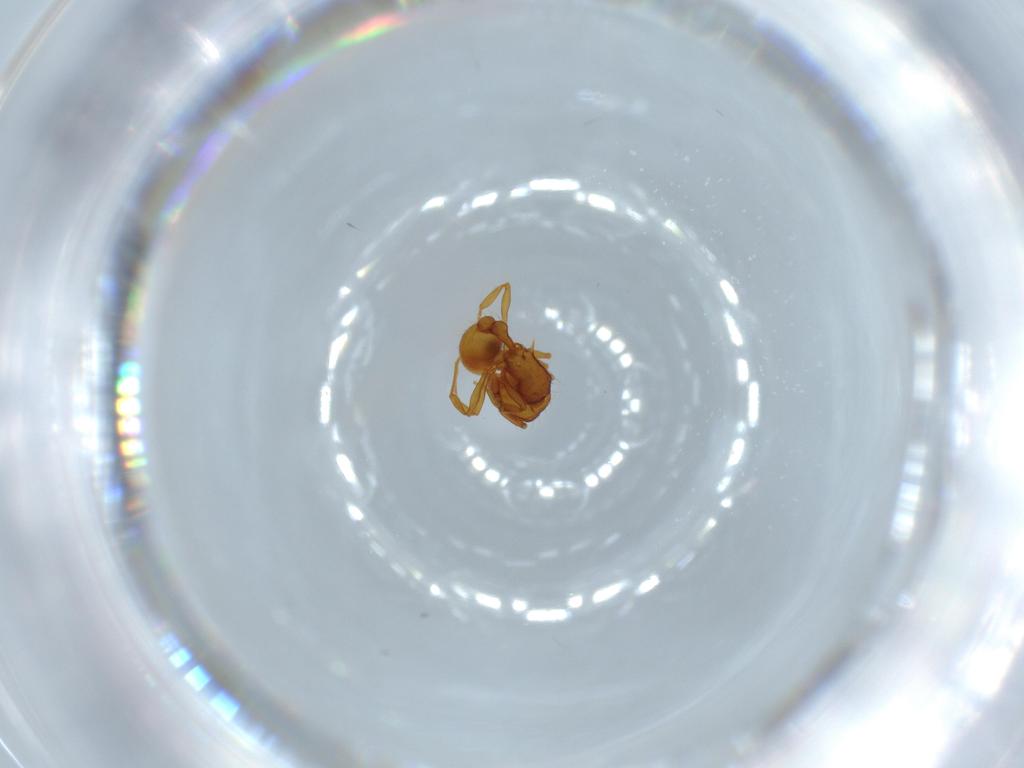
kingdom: Animalia
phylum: Arthropoda
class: Insecta
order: Hymenoptera
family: Formicidae
